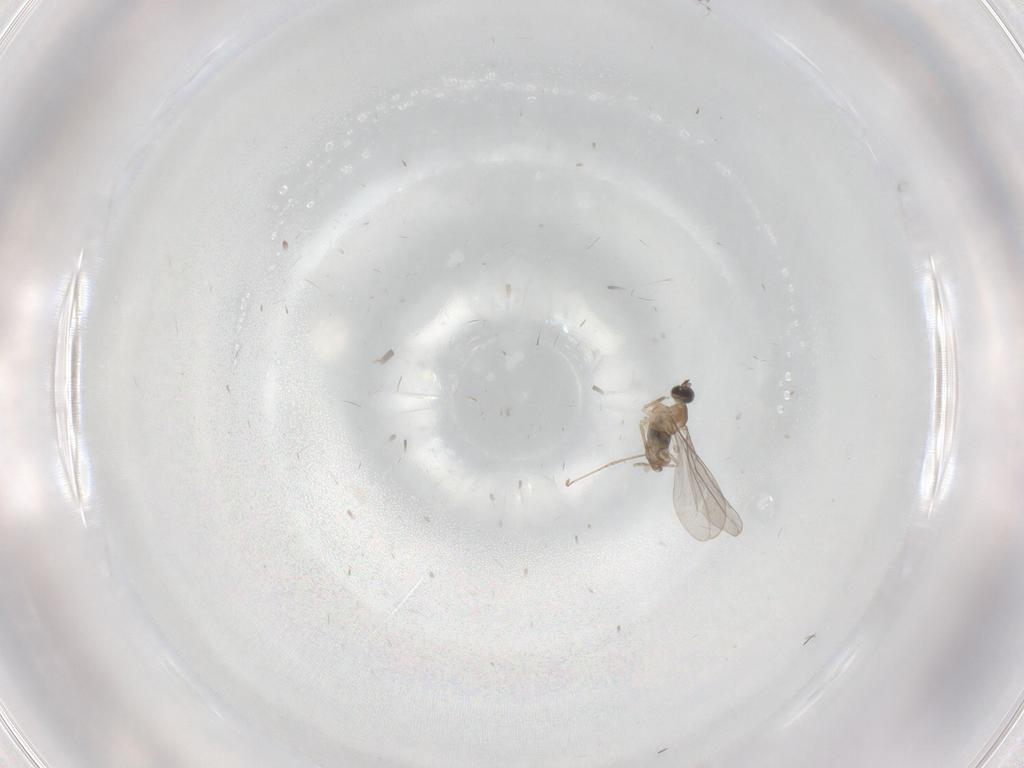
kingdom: Animalia
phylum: Arthropoda
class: Insecta
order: Diptera
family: Cecidomyiidae
